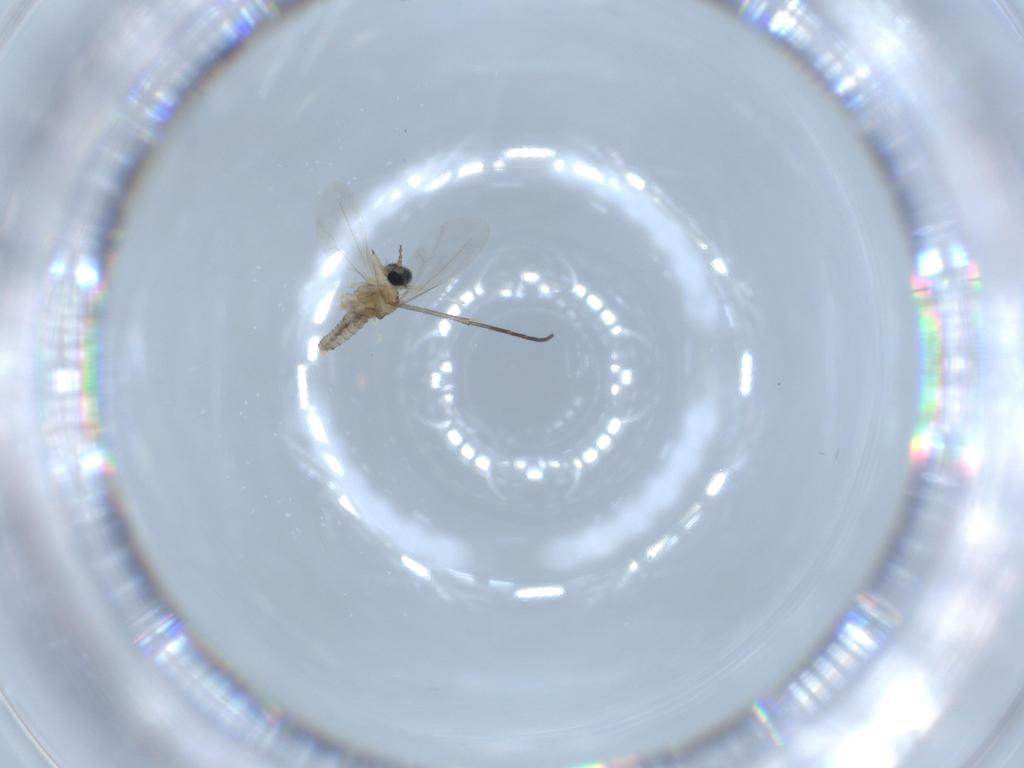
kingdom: Animalia
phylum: Arthropoda
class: Insecta
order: Diptera
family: Cecidomyiidae
